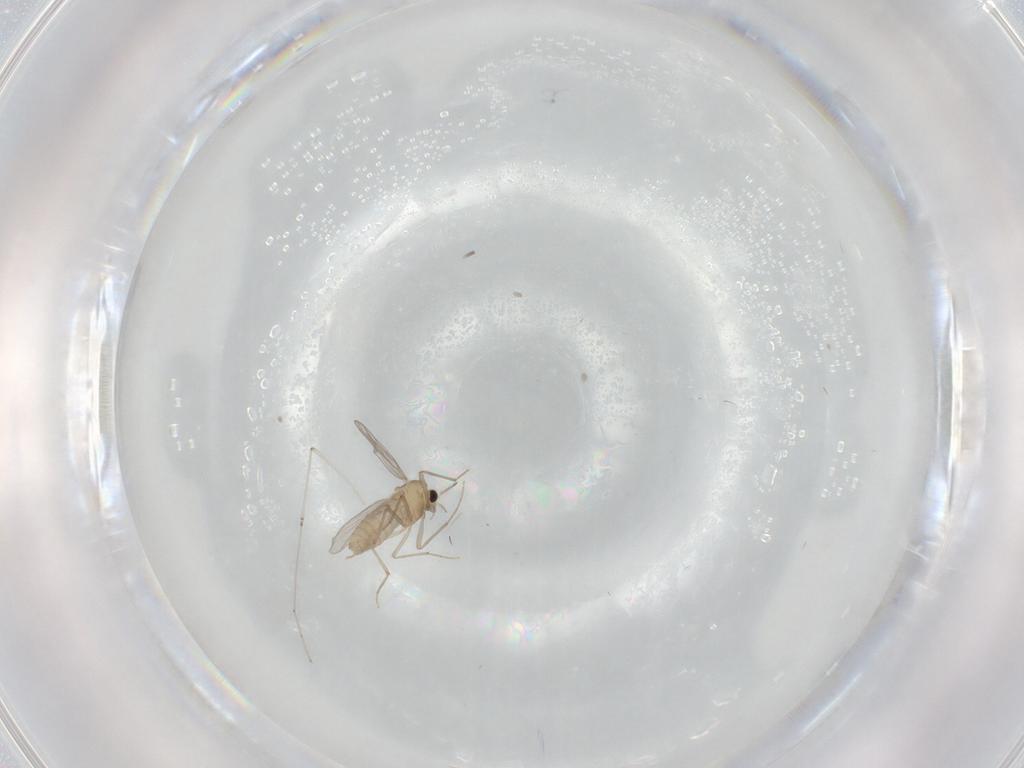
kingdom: Animalia
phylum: Arthropoda
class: Insecta
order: Diptera
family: Chironomidae
